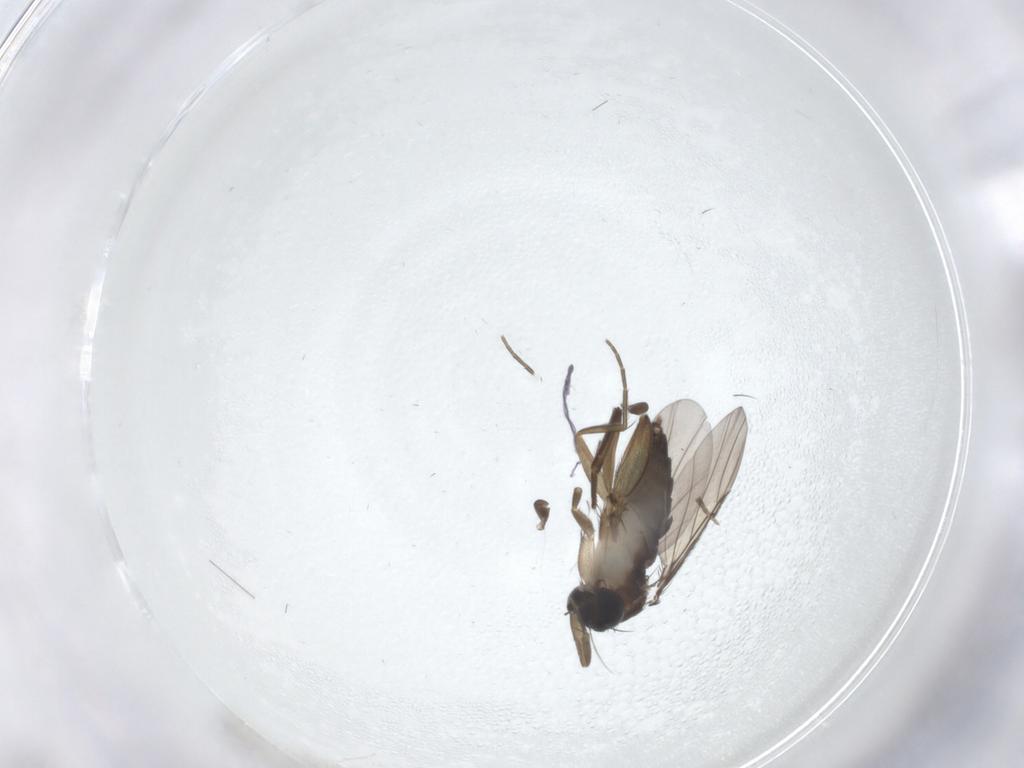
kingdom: Animalia
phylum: Arthropoda
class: Insecta
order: Diptera
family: Phoridae
